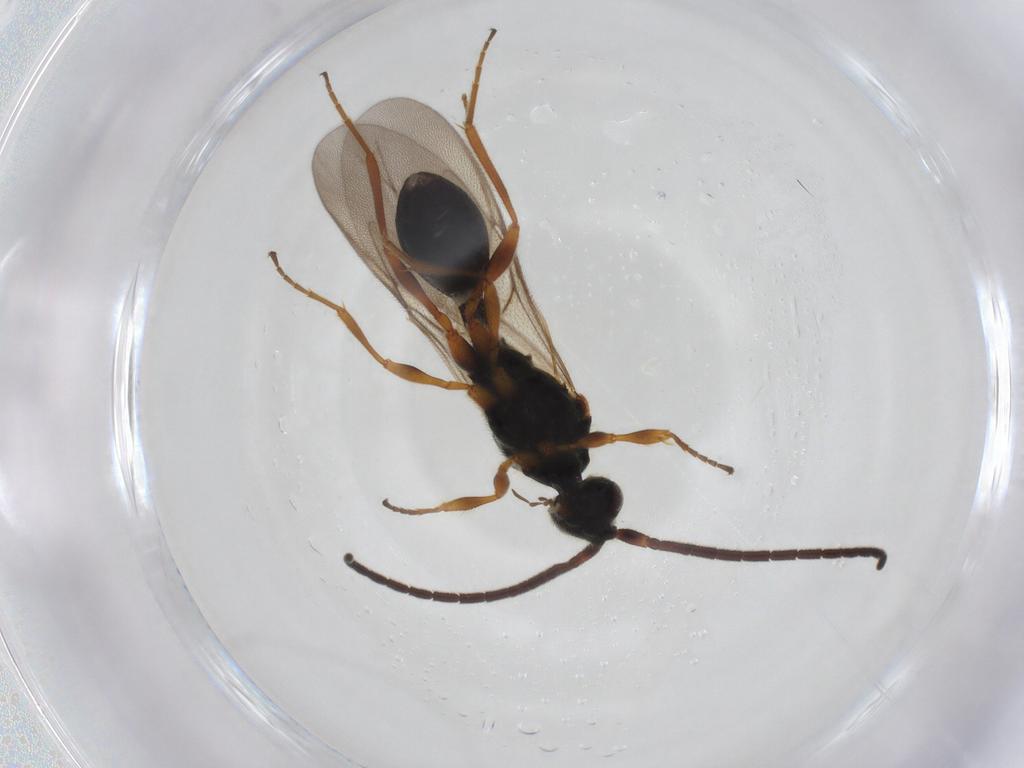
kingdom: Animalia
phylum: Arthropoda
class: Insecta
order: Hymenoptera
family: Diapriidae
